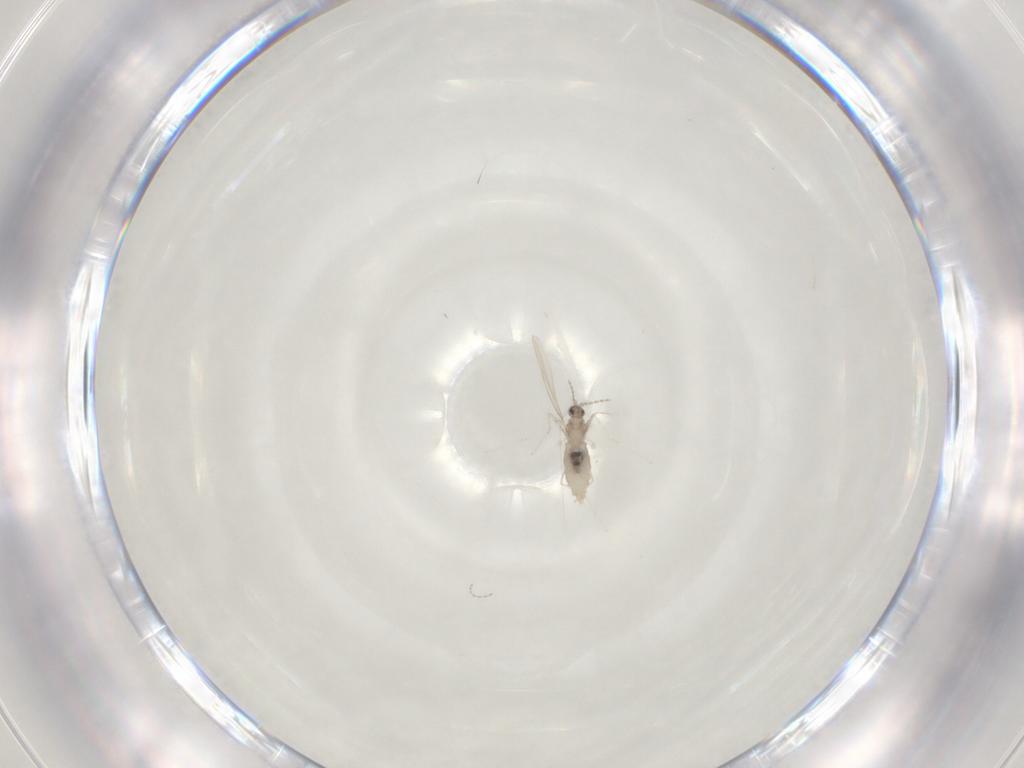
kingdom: Animalia
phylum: Arthropoda
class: Insecta
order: Diptera
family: Cecidomyiidae
